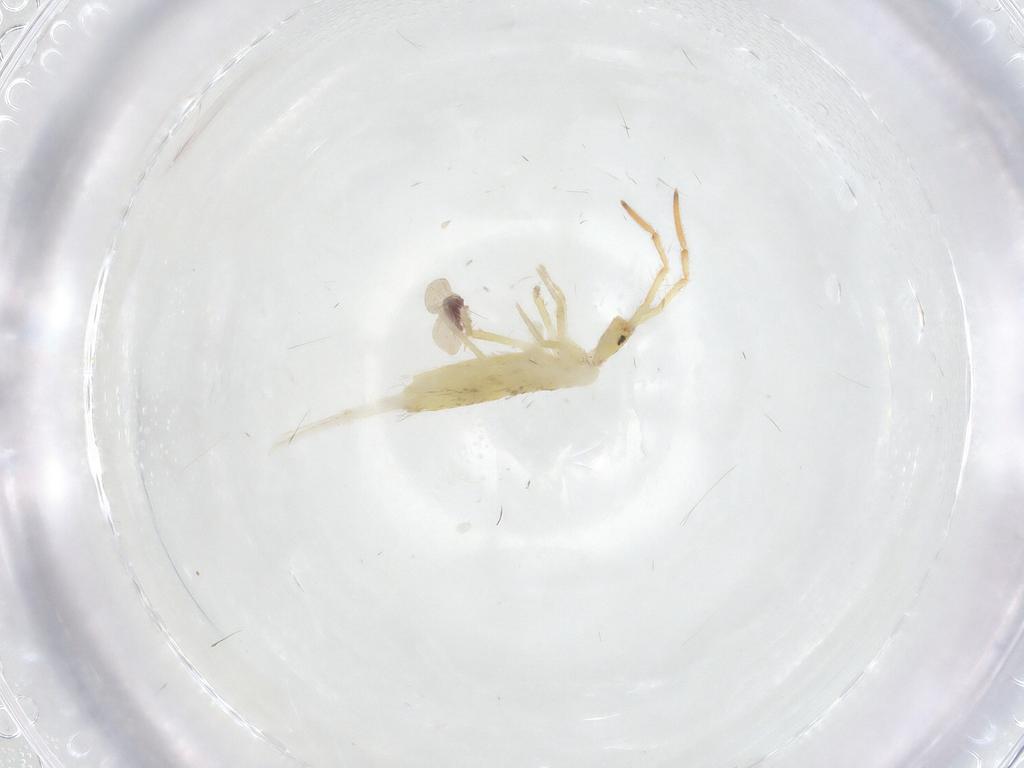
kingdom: Animalia
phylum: Arthropoda
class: Collembola
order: Entomobryomorpha
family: Entomobryidae
